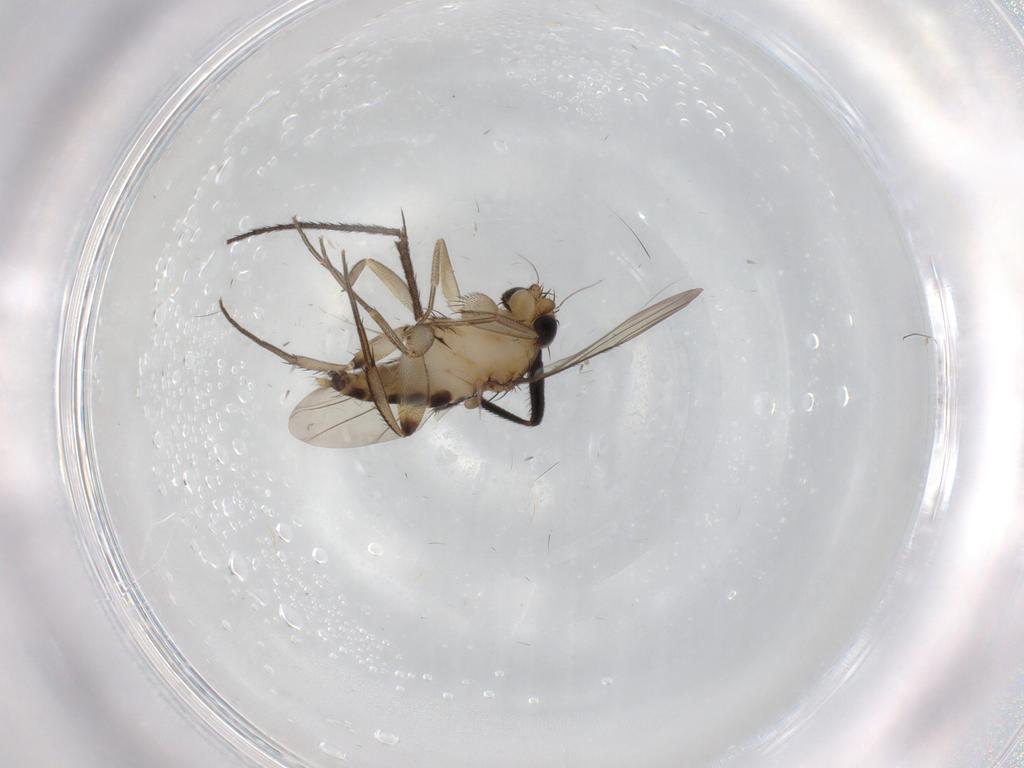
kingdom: Animalia
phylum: Arthropoda
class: Insecta
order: Diptera
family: Phoridae
